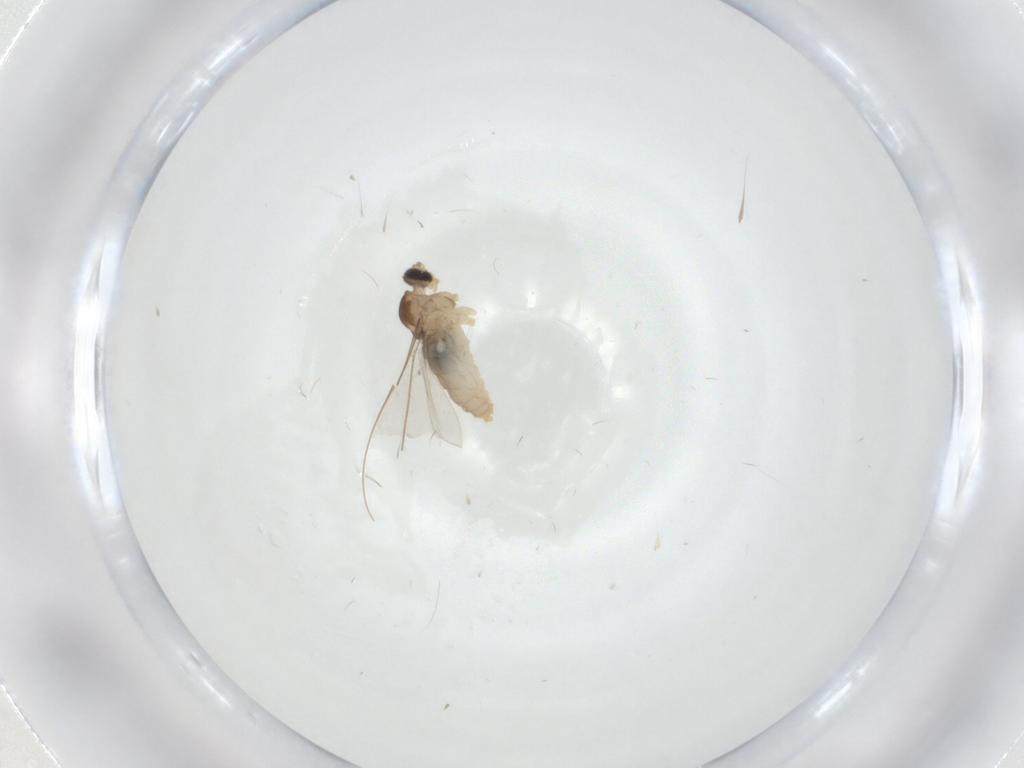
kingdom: Animalia
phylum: Arthropoda
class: Insecta
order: Diptera
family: Cecidomyiidae
